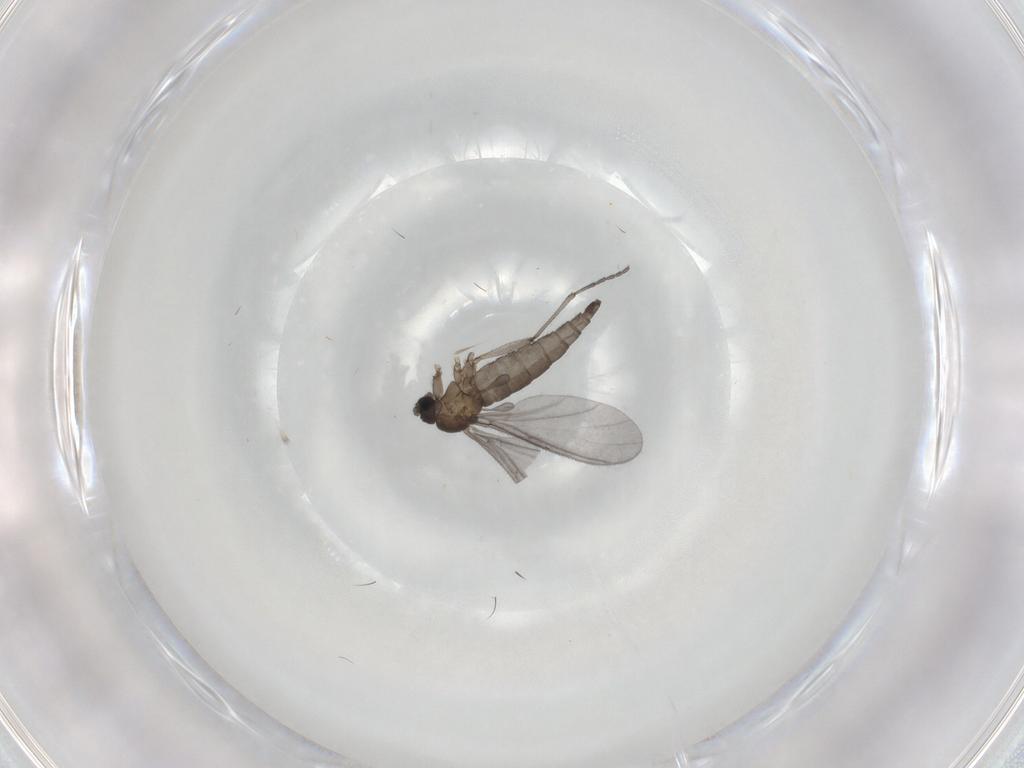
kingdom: Animalia
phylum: Arthropoda
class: Insecta
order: Diptera
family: Sciaridae
